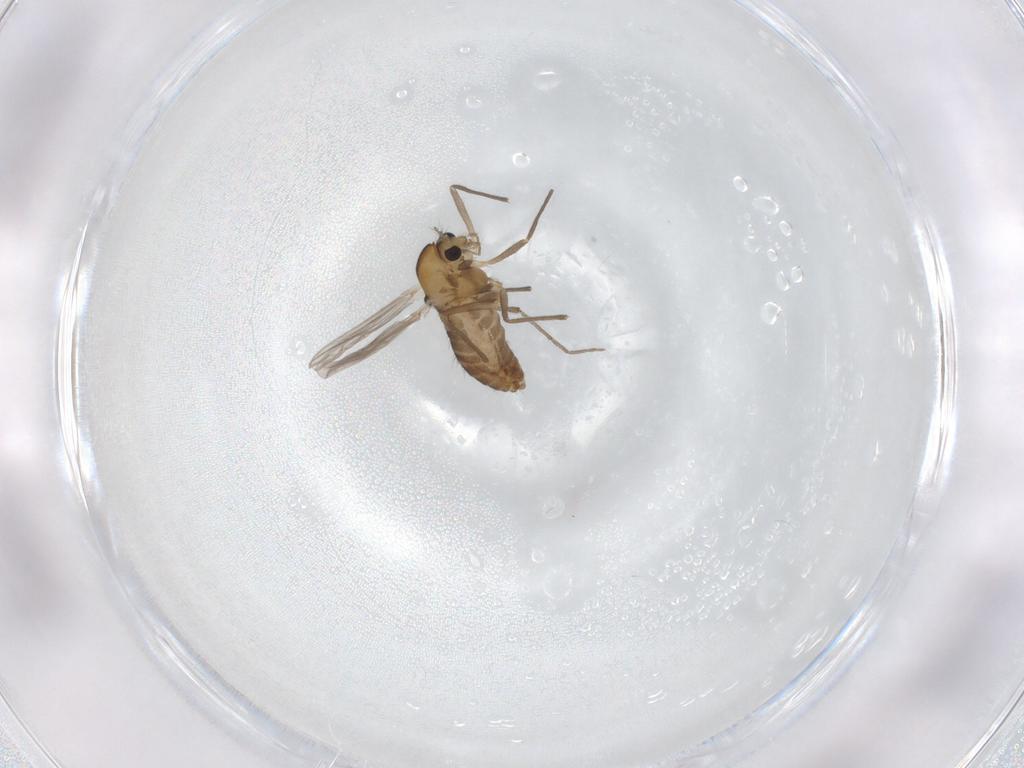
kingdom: Animalia
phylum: Arthropoda
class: Insecta
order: Diptera
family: Chironomidae
